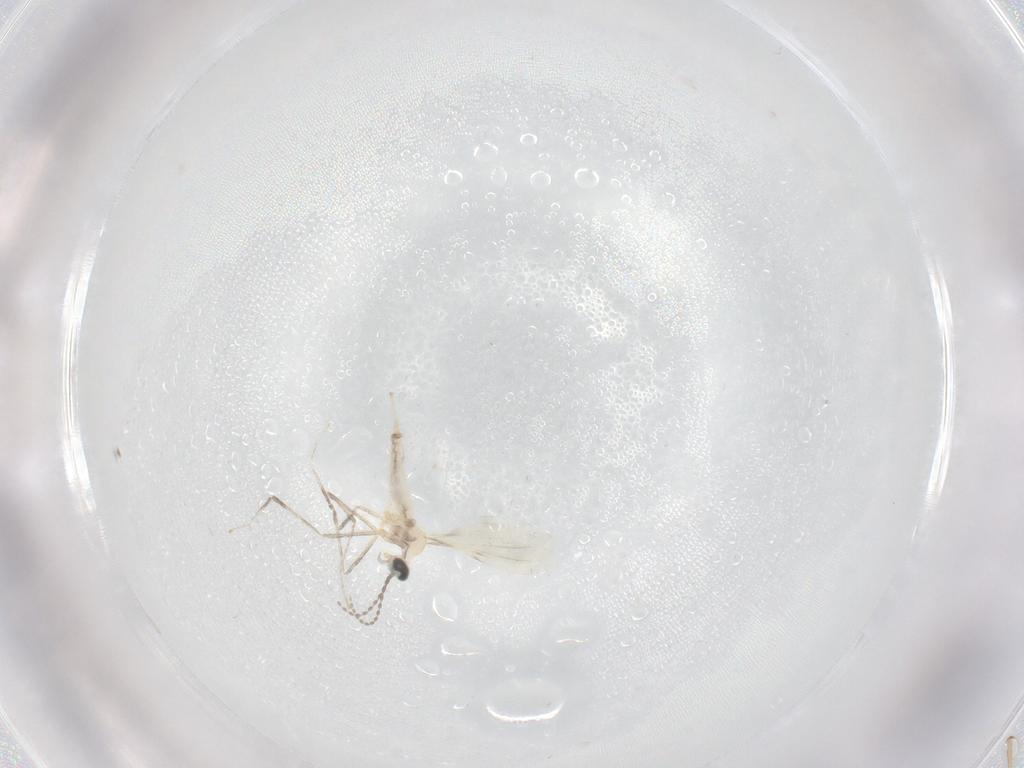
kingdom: Animalia
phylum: Arthropoda
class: Insecta
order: Diptera
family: Cecidomyiidae
